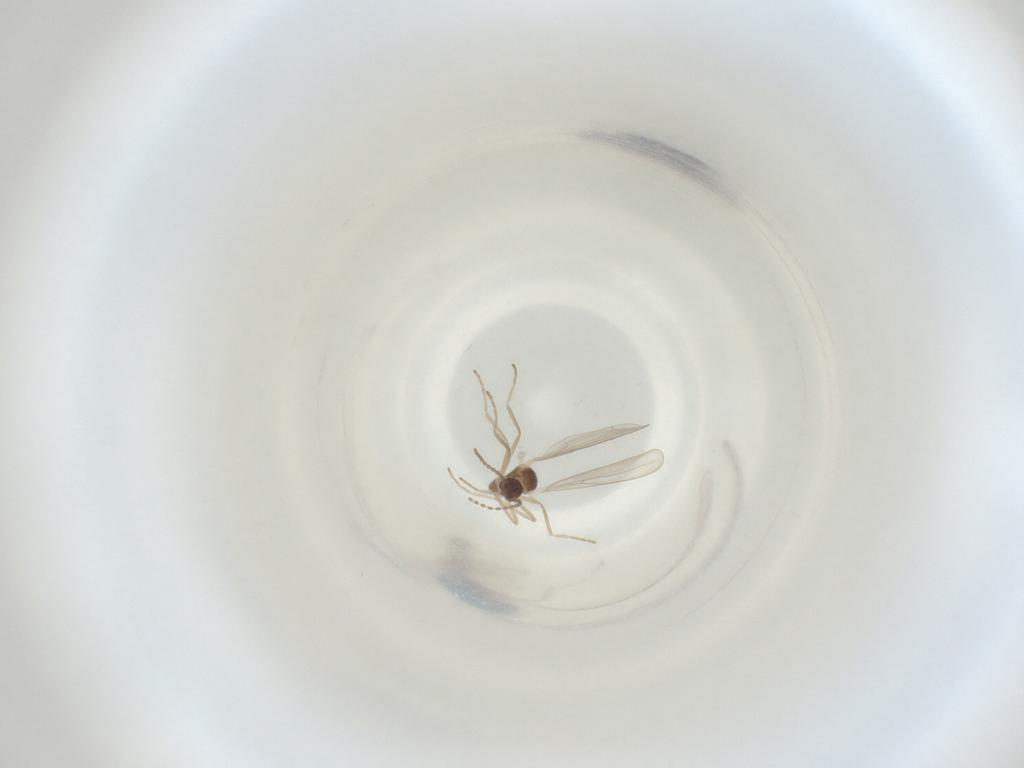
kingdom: Animalia
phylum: Arthropoda
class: Insecta
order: Diptera
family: Cecidomyiidae
